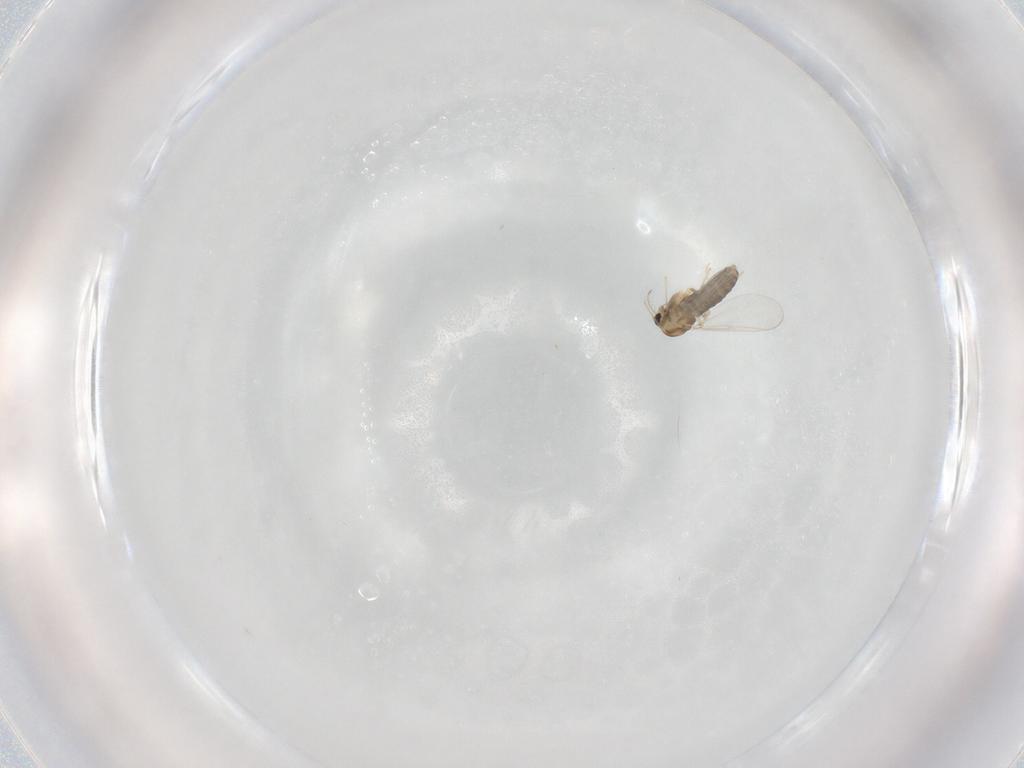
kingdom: Animalia
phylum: Arthropoda
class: Insecta
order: Diptera
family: Chironomidae
